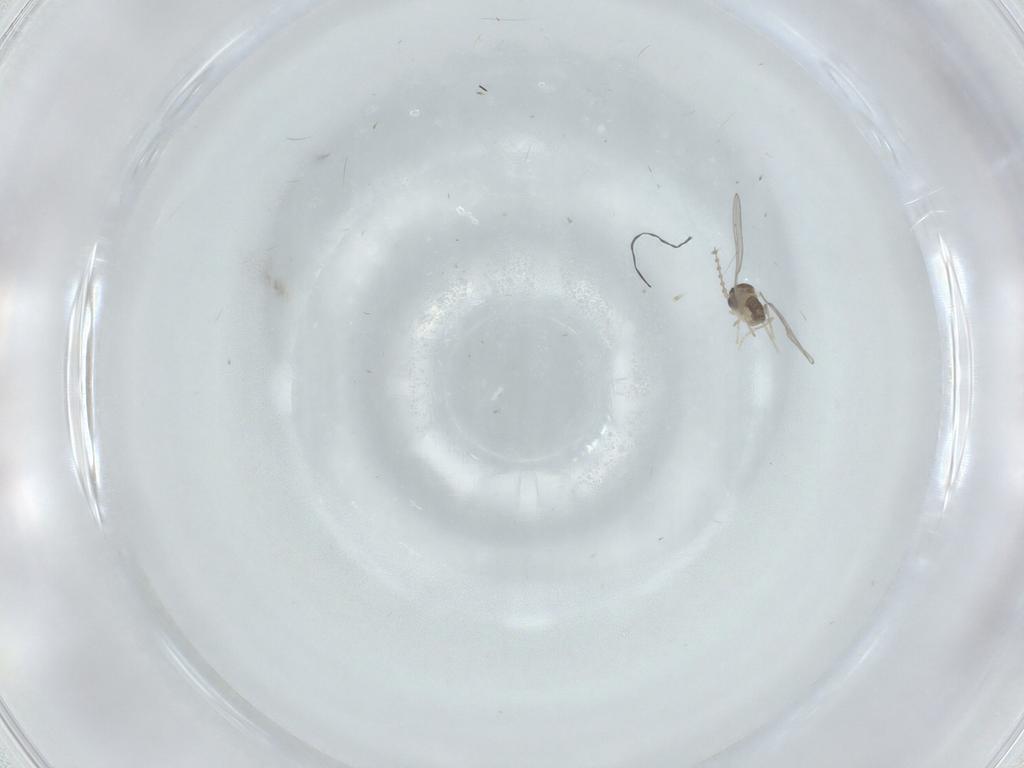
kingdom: Animalia
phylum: Arthropoda
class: Insecta
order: Diptera
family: Cecidomyiidae
